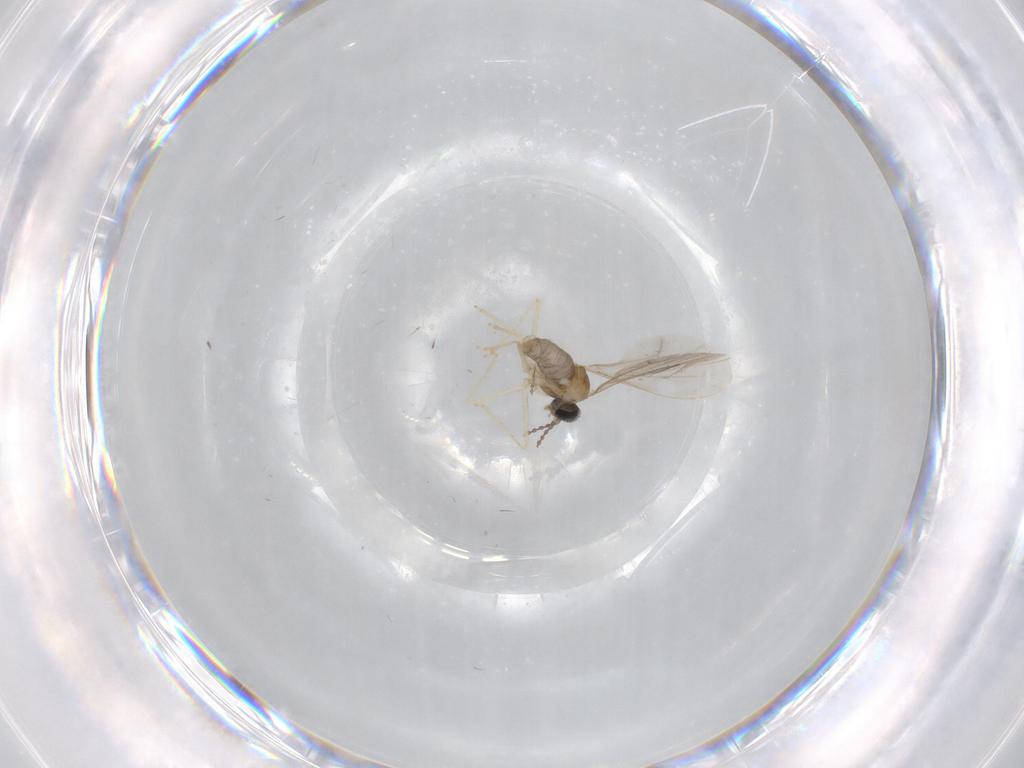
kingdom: Animalia
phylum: Arthropoda
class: Insecta
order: Diptera
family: Cecidomyiidae
